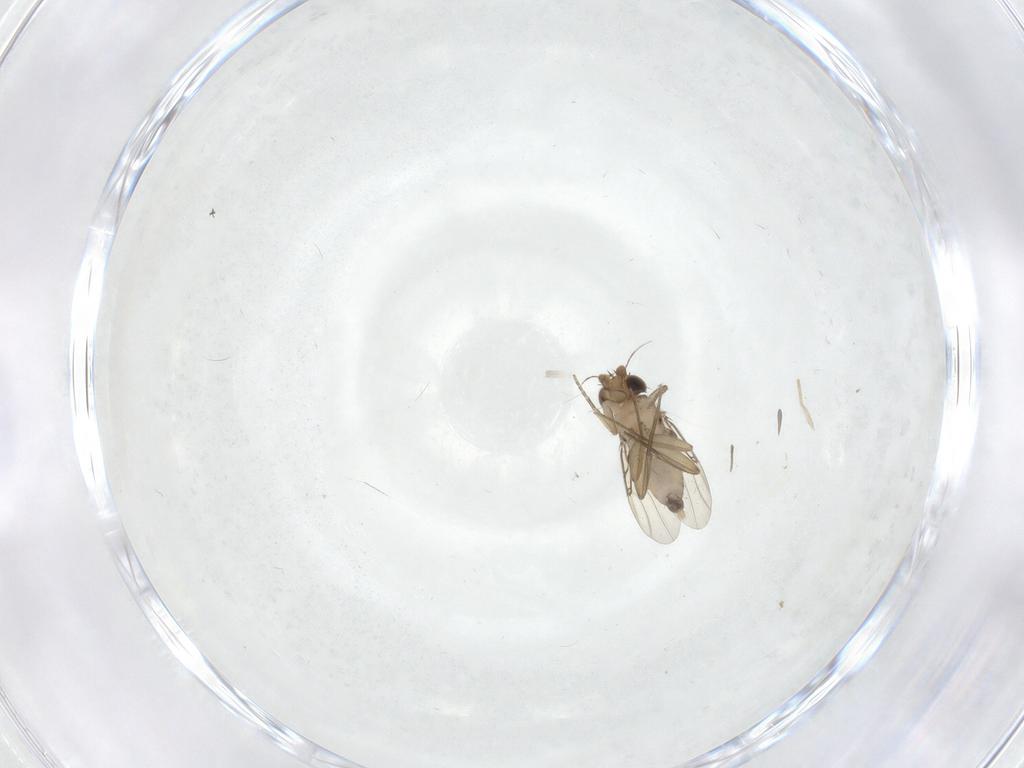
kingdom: Animalia
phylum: Arthropoda
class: Insecta
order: Diptera
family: Phoridae
